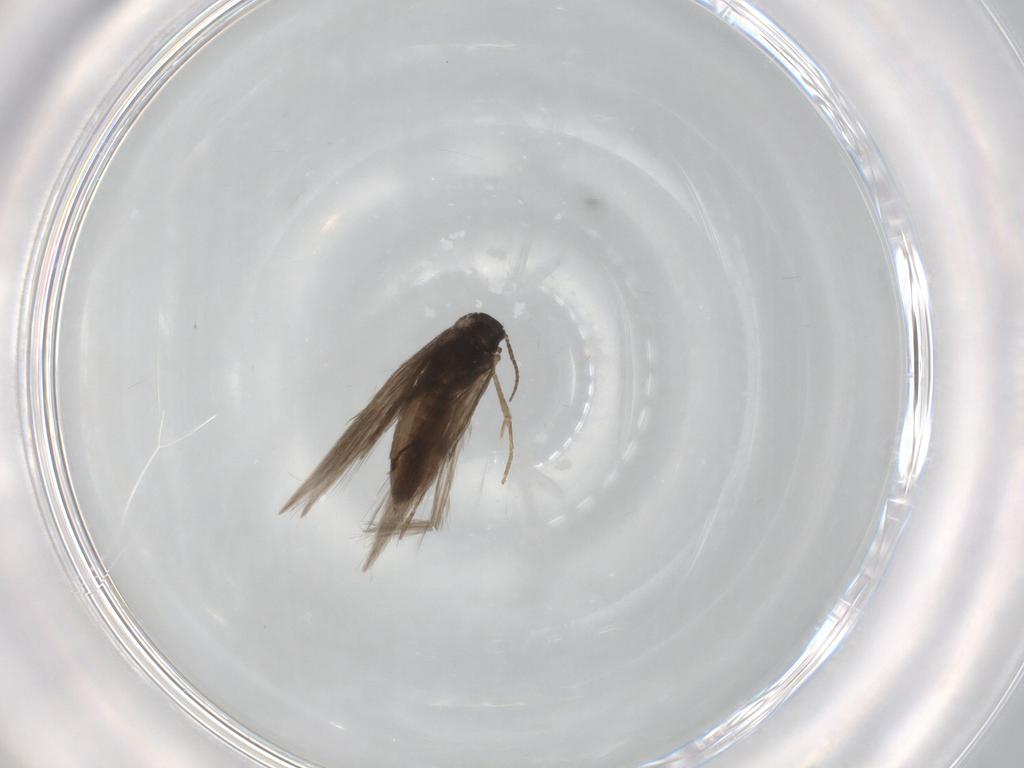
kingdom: Animalia
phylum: Arthropoda
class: Insecta
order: Trichoptera
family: Hydroptilidae
